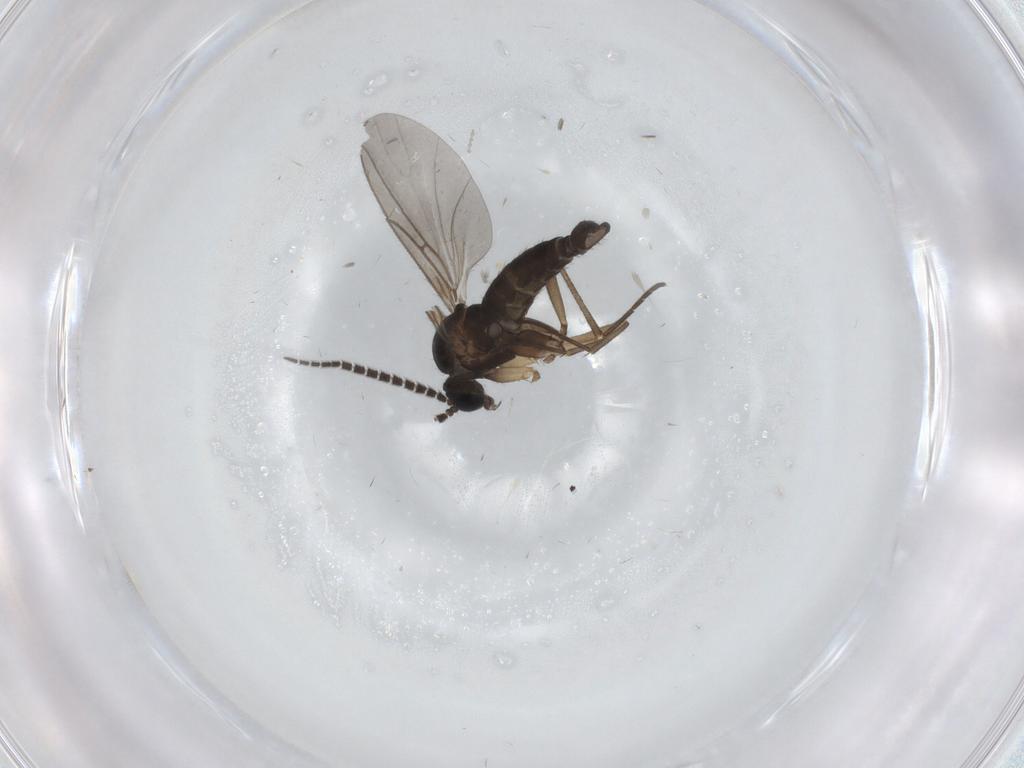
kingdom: Animalia
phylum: Arthropoda
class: Insecta
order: Diptera
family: Sciaridae
